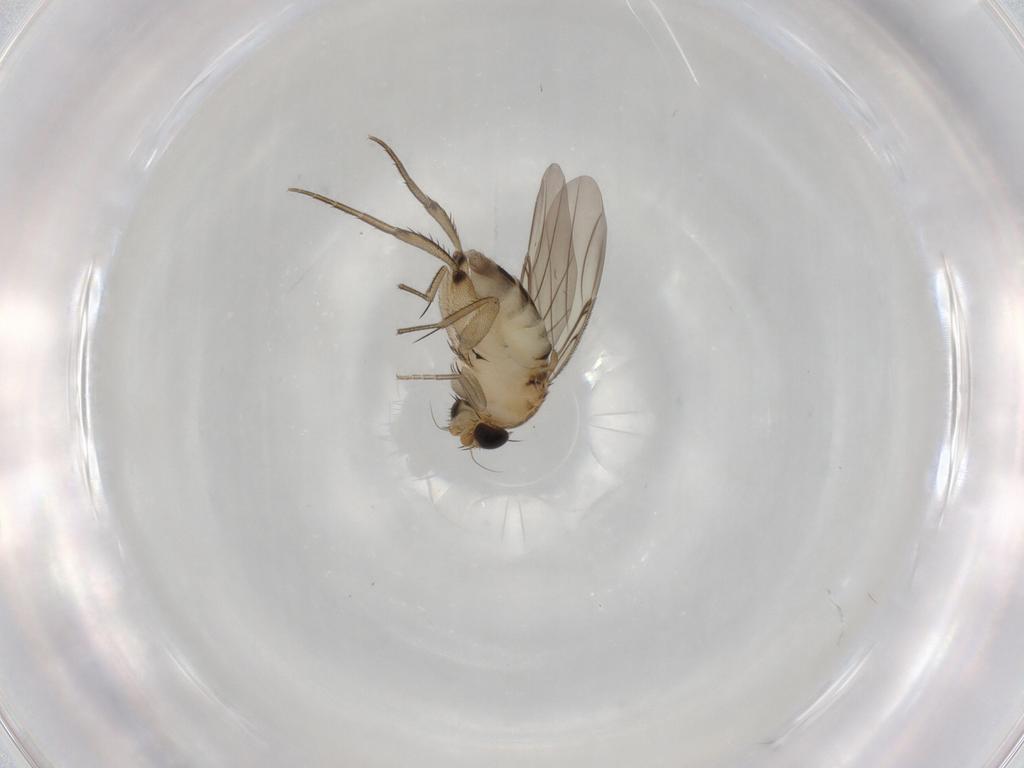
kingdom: Animalia
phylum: Arthropoda
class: Insecta
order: Diptera
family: Phoridae
